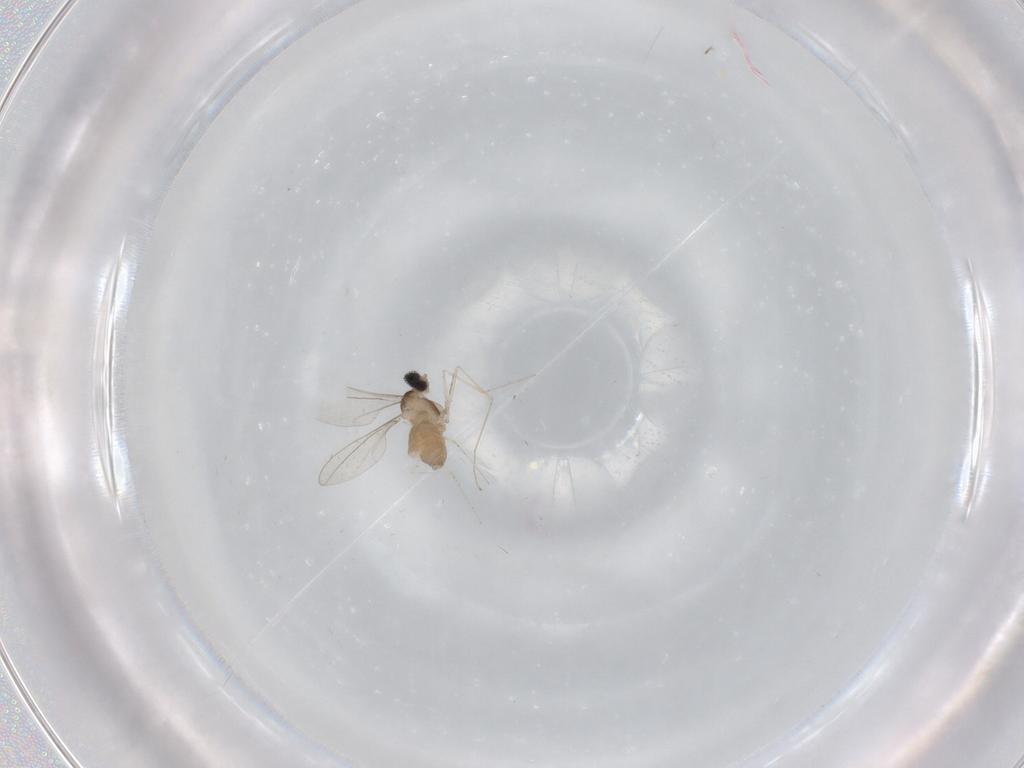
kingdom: Animalia
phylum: Arthropoda
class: Insecta
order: Diptera
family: Cecidomyiidae
